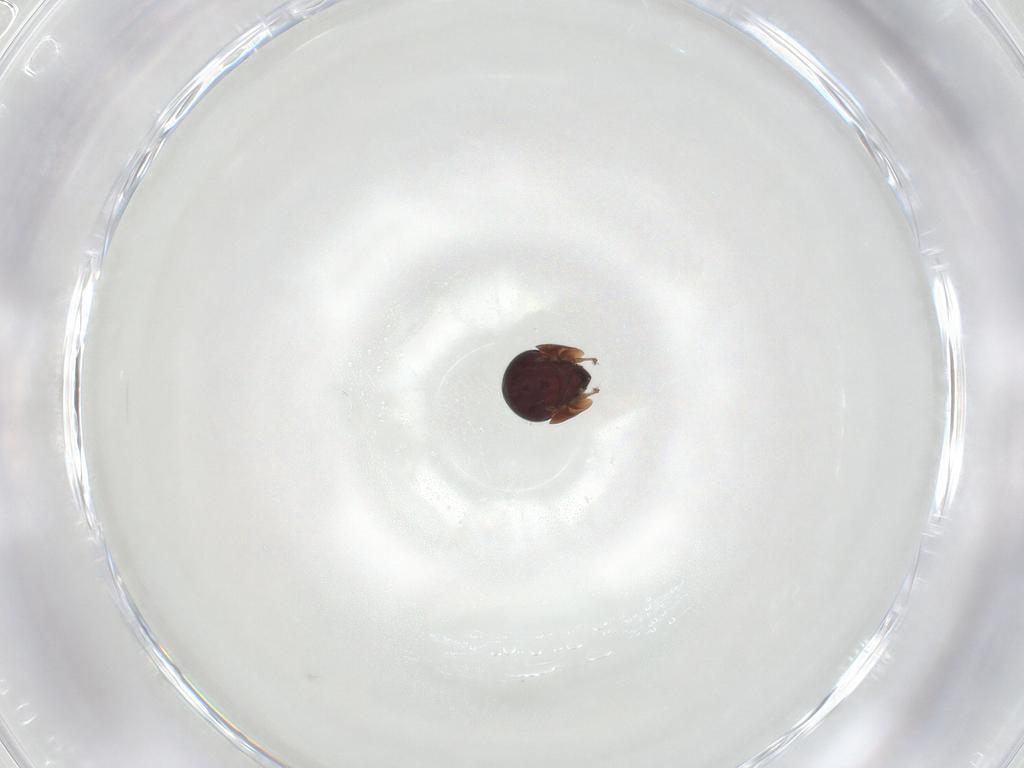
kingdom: Animalia
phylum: Arthropoda
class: Arachnida
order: Sarcoptiformes
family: Galumnidae
